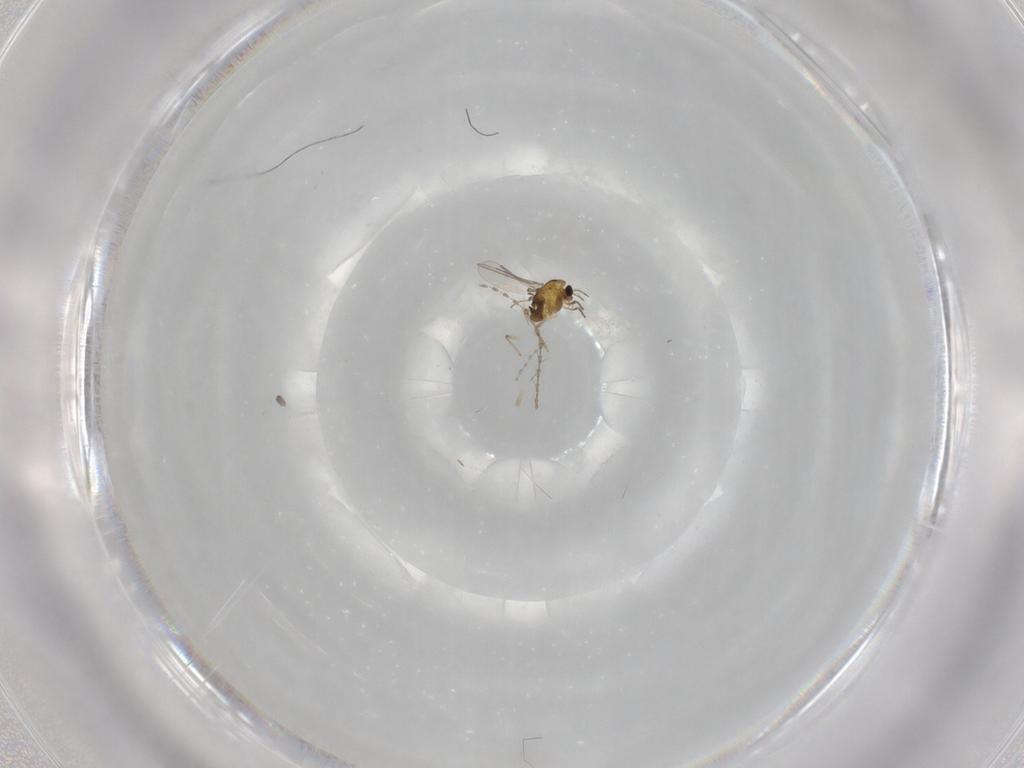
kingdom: Animalia
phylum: Arthropoda
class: Insecta
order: Diptera
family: Chironomidae
